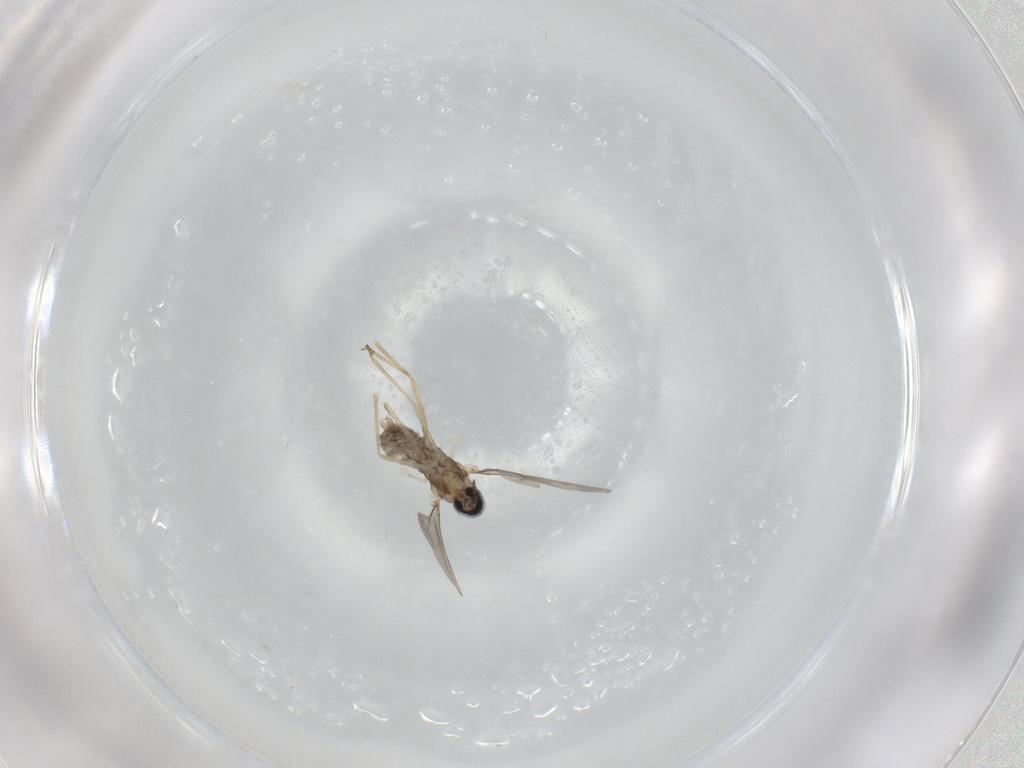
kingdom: Animalia
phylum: Arthropoda
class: Insecta
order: Diptera
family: Cecidomyiidae
